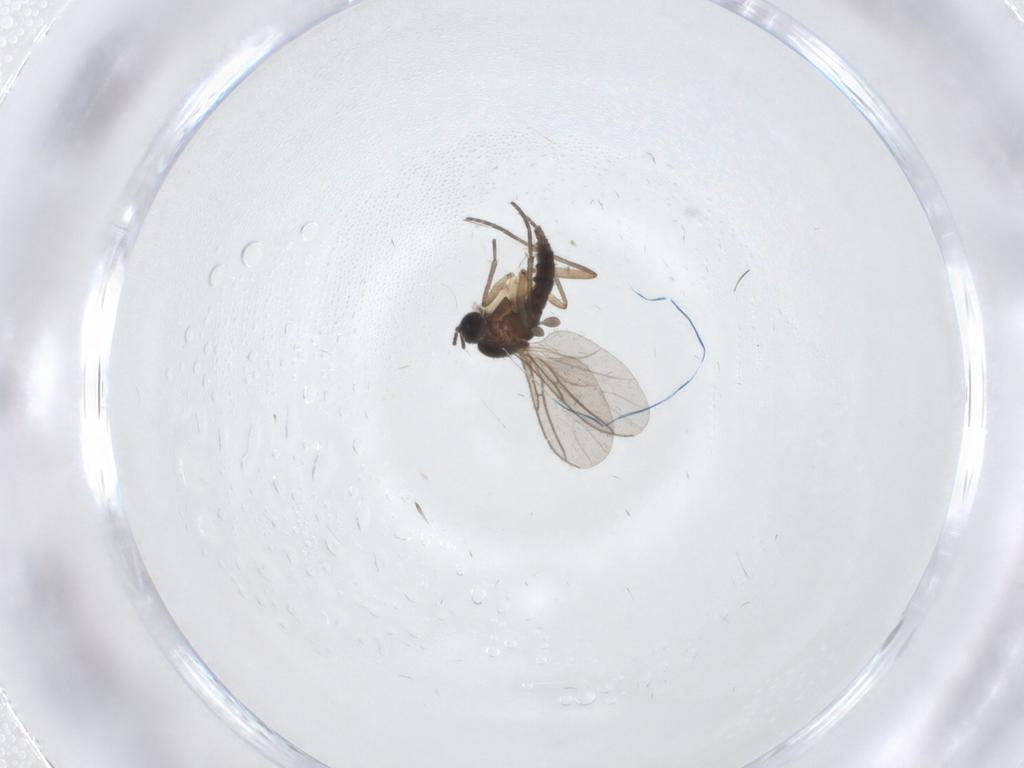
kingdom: Animalia
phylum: Arthropoda
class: Insecta
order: Diptera
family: Sciaridae
